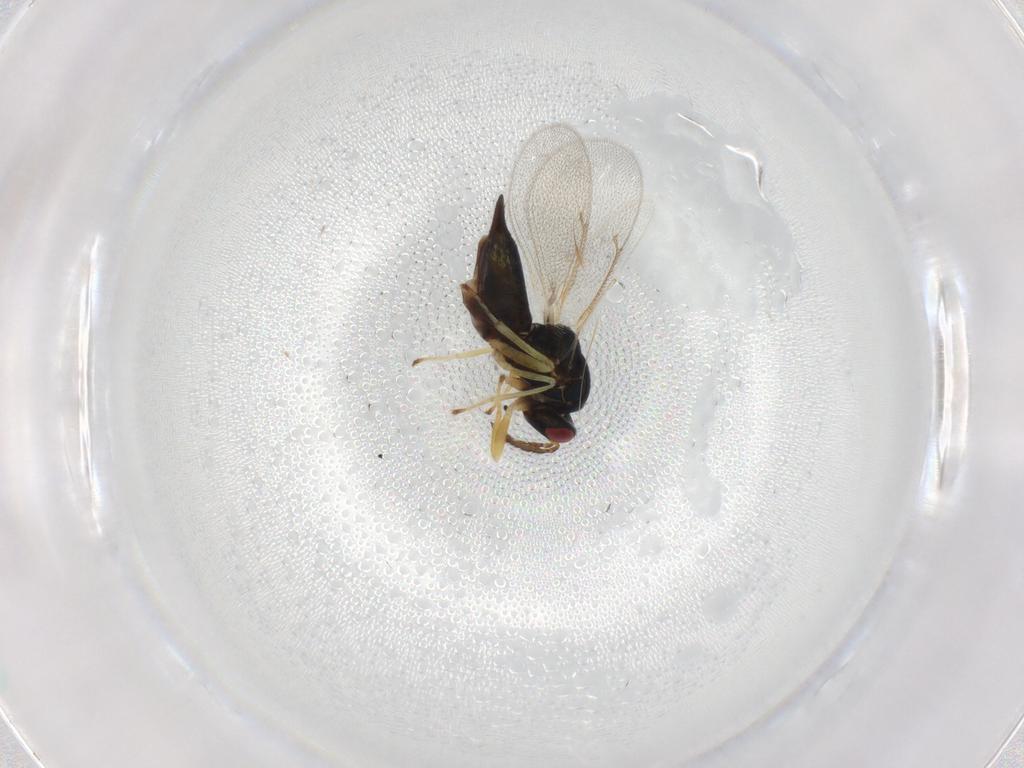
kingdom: Animalia
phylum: Arthropoda
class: Insecta
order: Hymenoptera
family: Eulophidae
